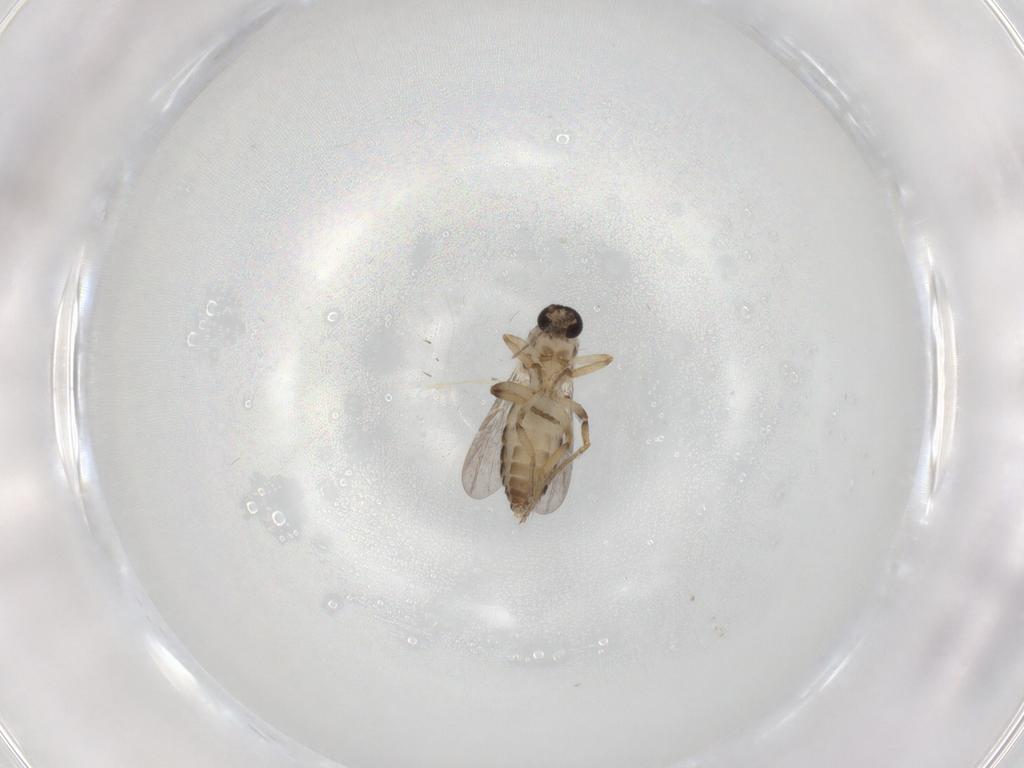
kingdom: Animalia
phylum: Arthropoda
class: Insecta
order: Diptera
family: Ceratopogonidae
